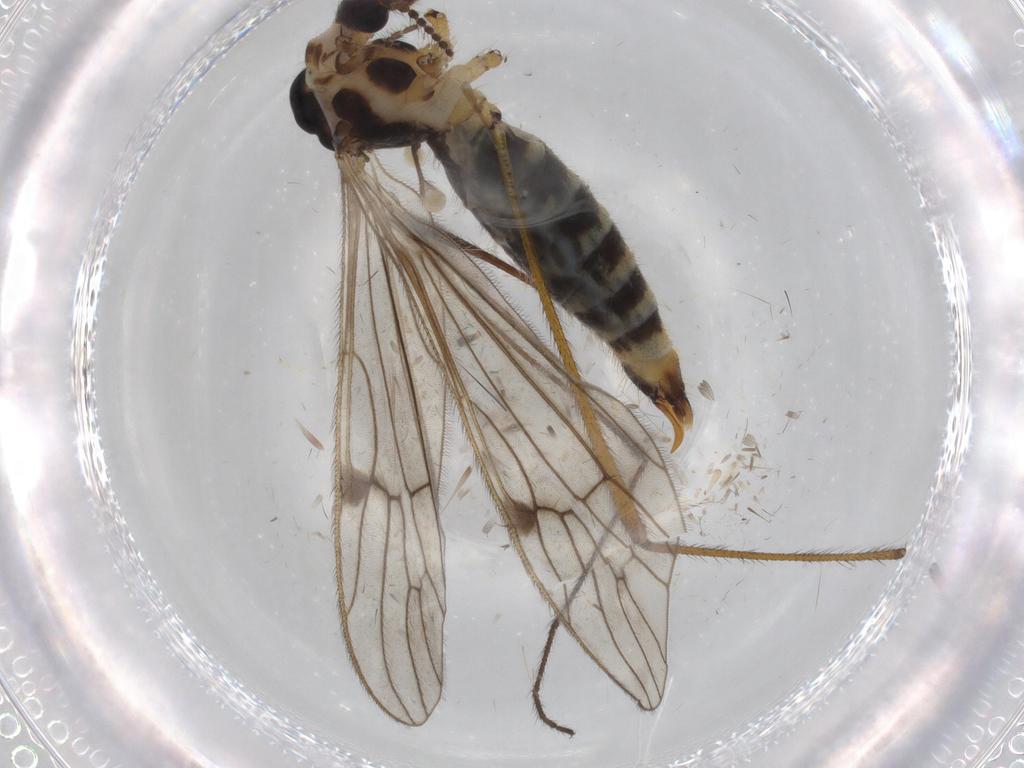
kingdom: Animalia
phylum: Arthropoda
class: Insecta
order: Diptera
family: Limoniidae
